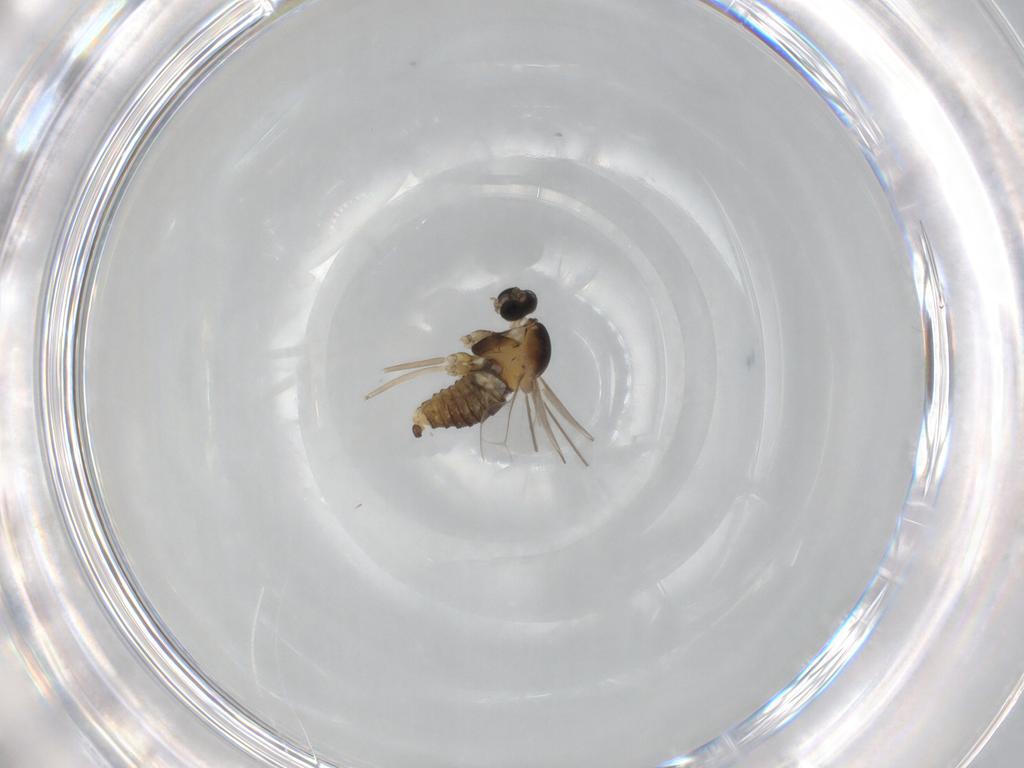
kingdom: Animalia
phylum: Arthropoda
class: Insecta
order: Diptera
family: Cecidomyiidae
